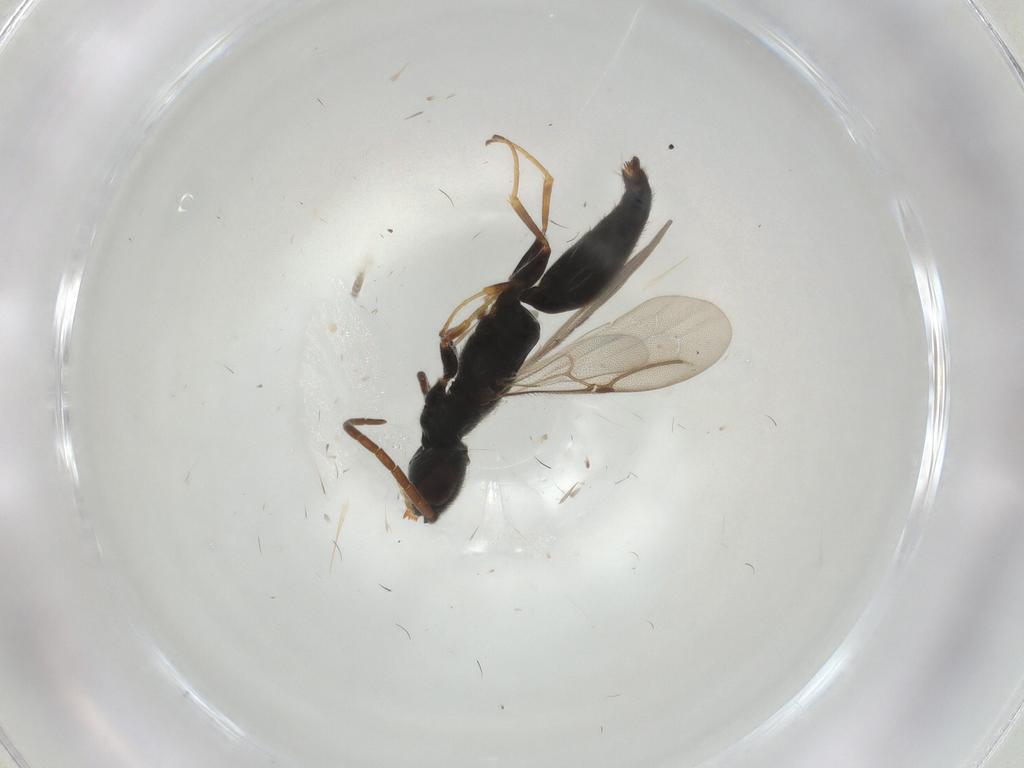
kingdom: Animalia
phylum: Arthropoda
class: Insecta
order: Hymenoptera
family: Bethylidae
